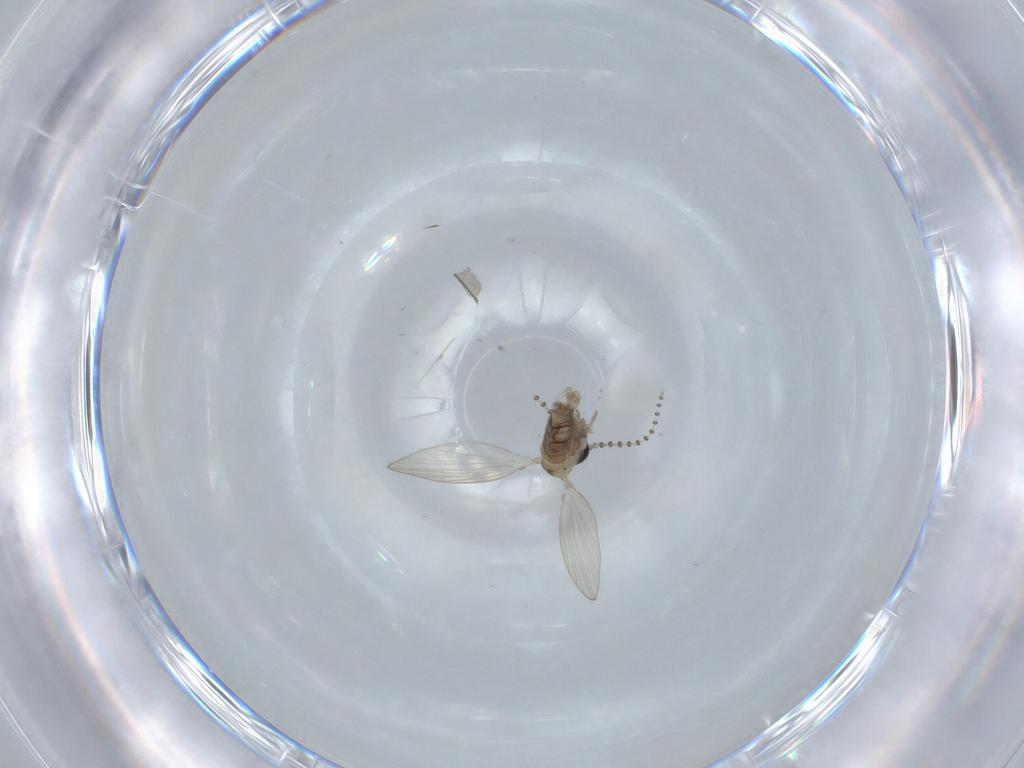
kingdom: Animalia
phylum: Arthropoda
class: Insecta
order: Diptera
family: Psychodidae
